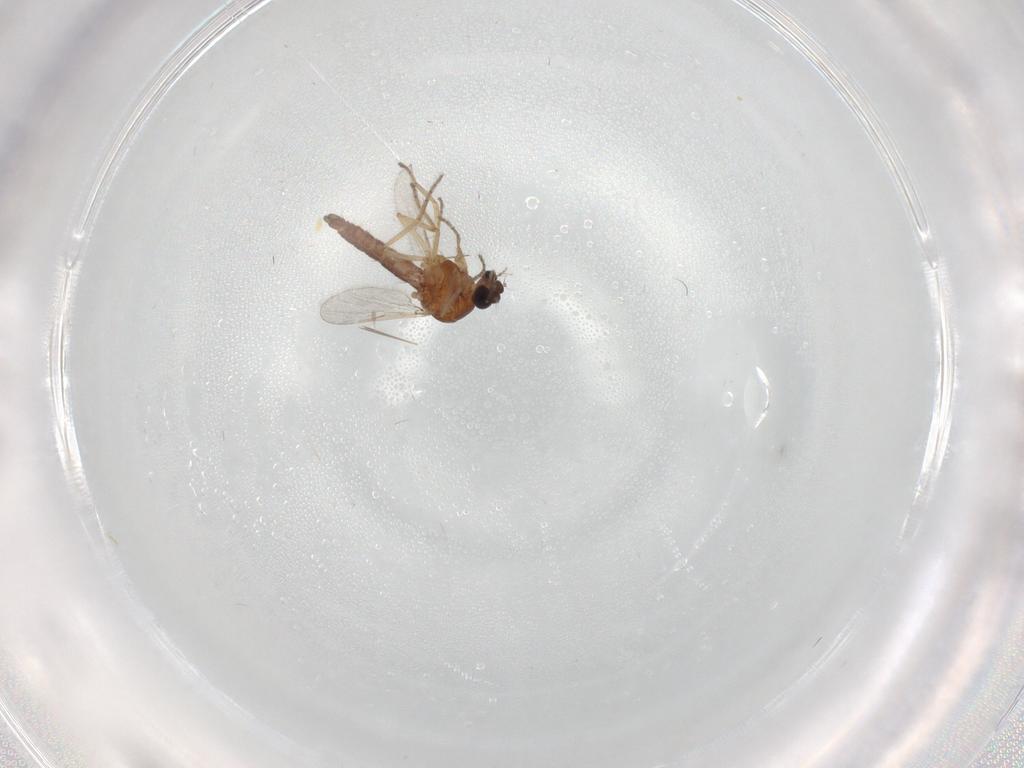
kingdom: Animalia
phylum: Arthropoda
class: Insecta
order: Diptera
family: Ceratopogonidae
